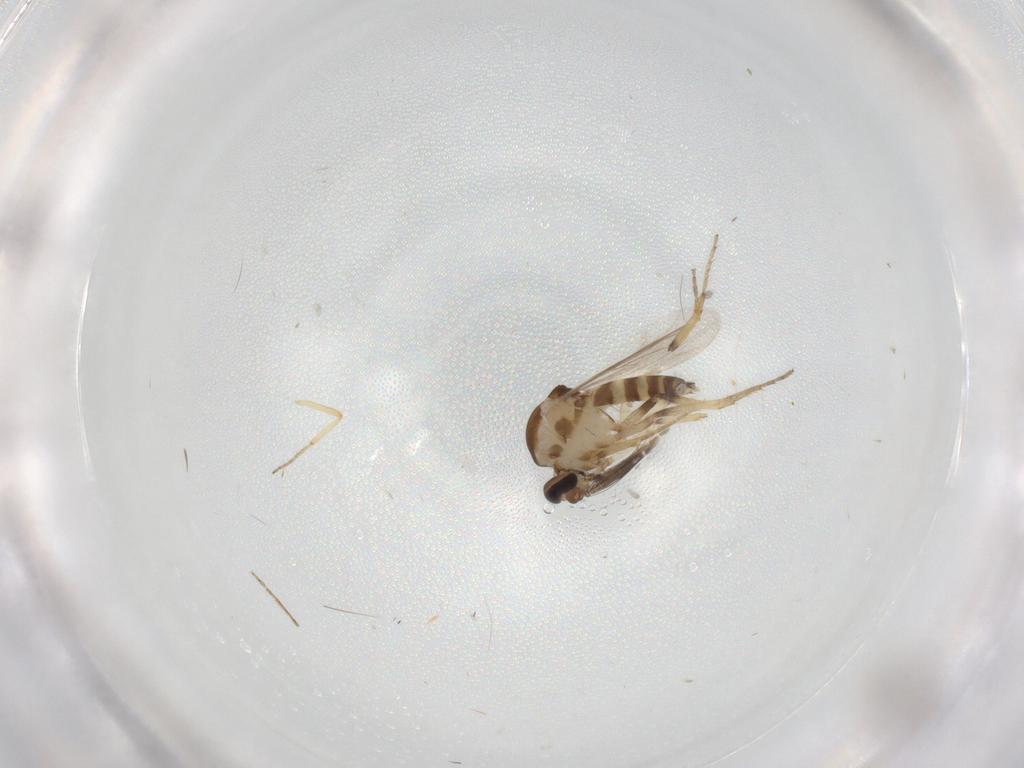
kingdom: Animalia
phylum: Arthropoda
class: Insecta
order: Diptera
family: Ceratopogonidae
